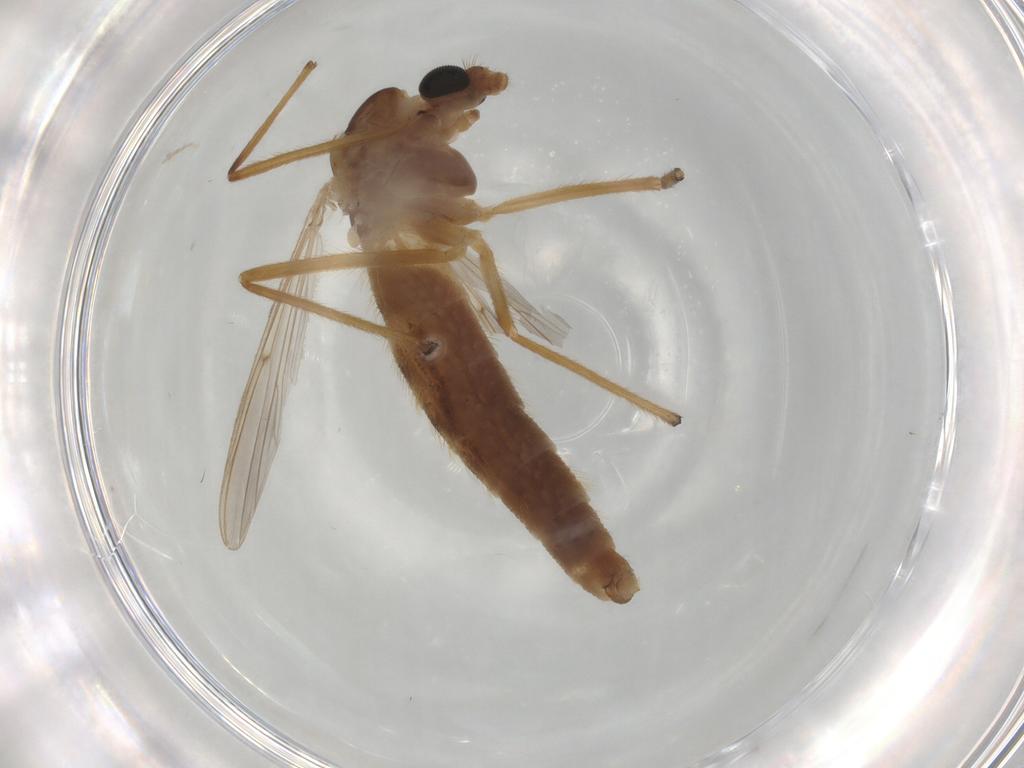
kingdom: Animalia
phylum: Arthropoda
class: Insecta
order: Diptera
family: Chironomidae
